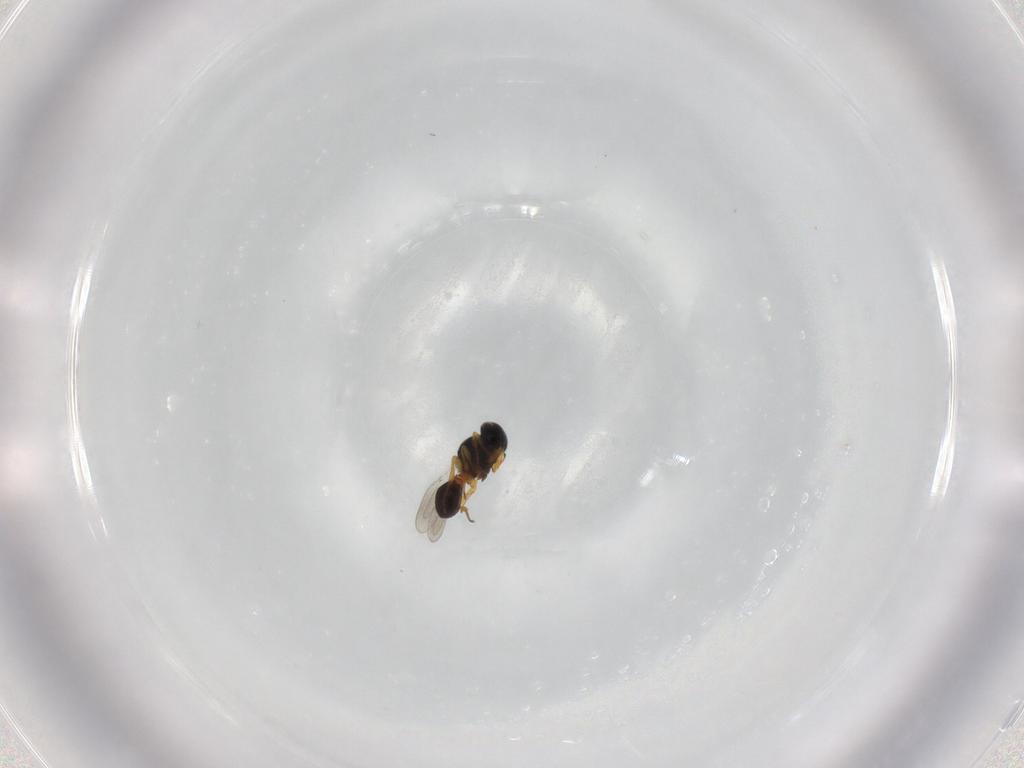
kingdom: Animalia
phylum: Arthropoda
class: Insecta
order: Hymenoptera
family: Platygastridae
